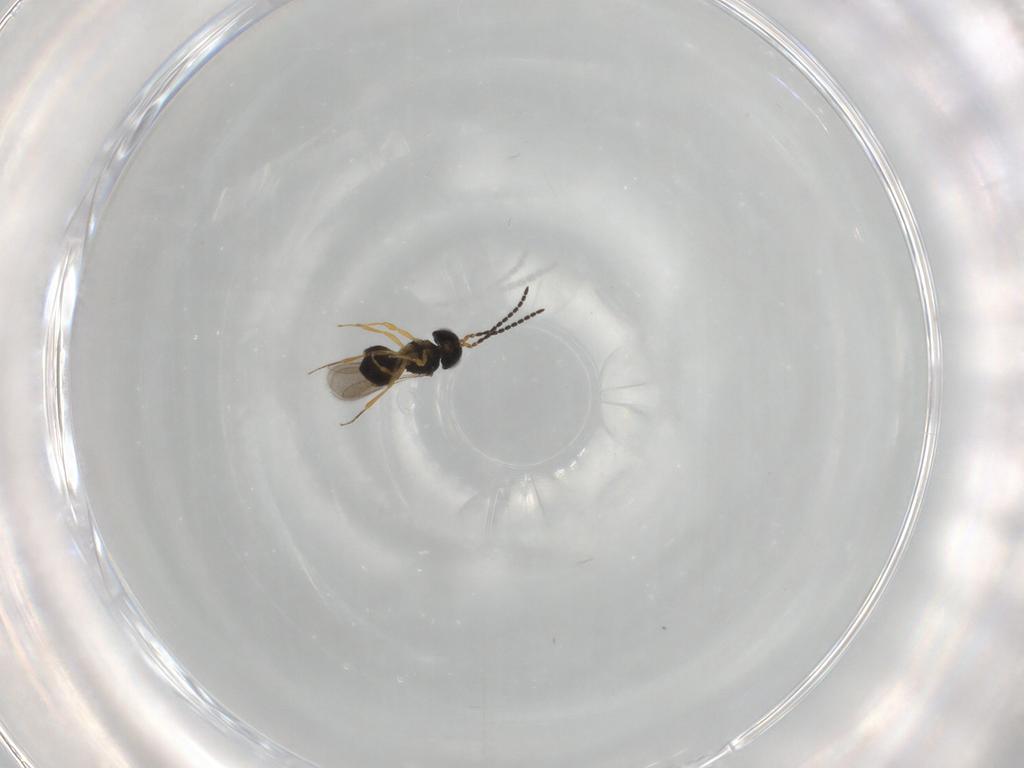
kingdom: Animalia
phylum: Arthropoda
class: Insecta
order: Hymenoptera
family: Scelionidae
